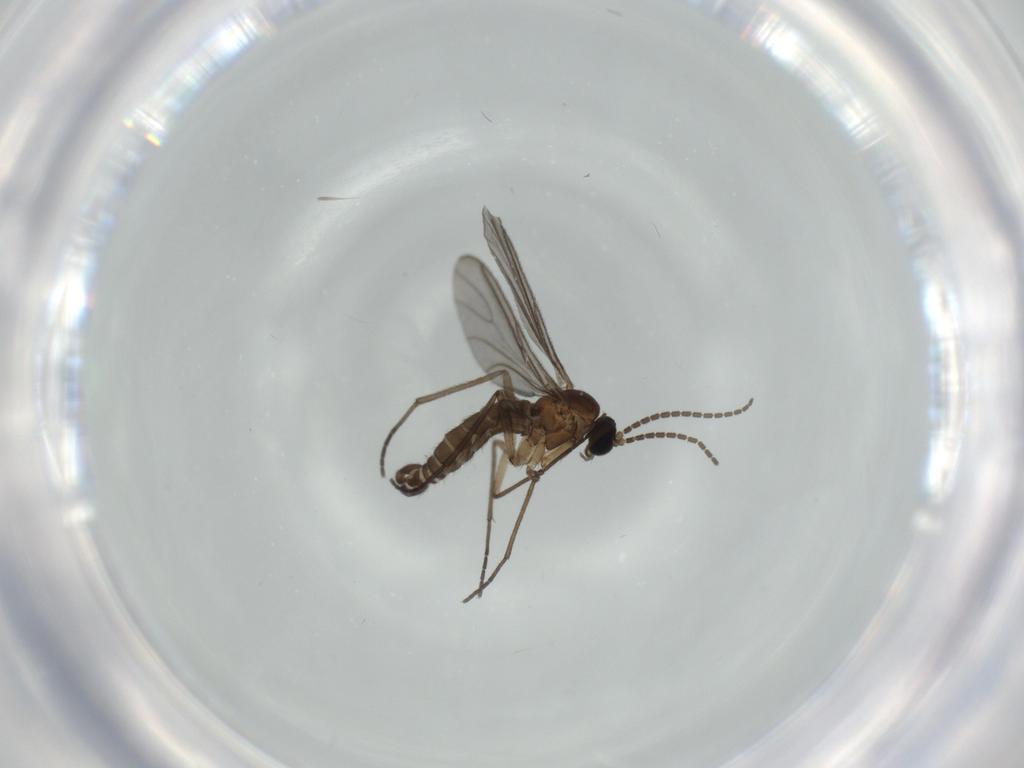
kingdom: Animalia
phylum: Arthropoda
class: Insecta
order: Diptera
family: Sciaridae
